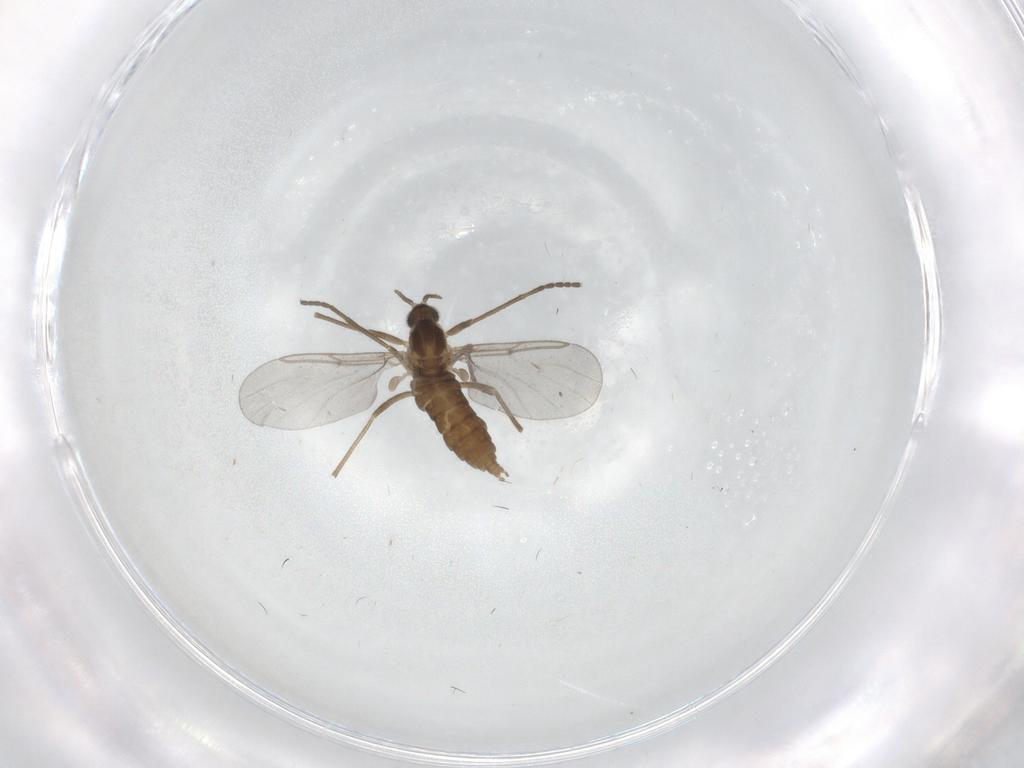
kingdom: Animalia
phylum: Arthropoda
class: Insecta
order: Diptera
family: Cecidomyiidae
